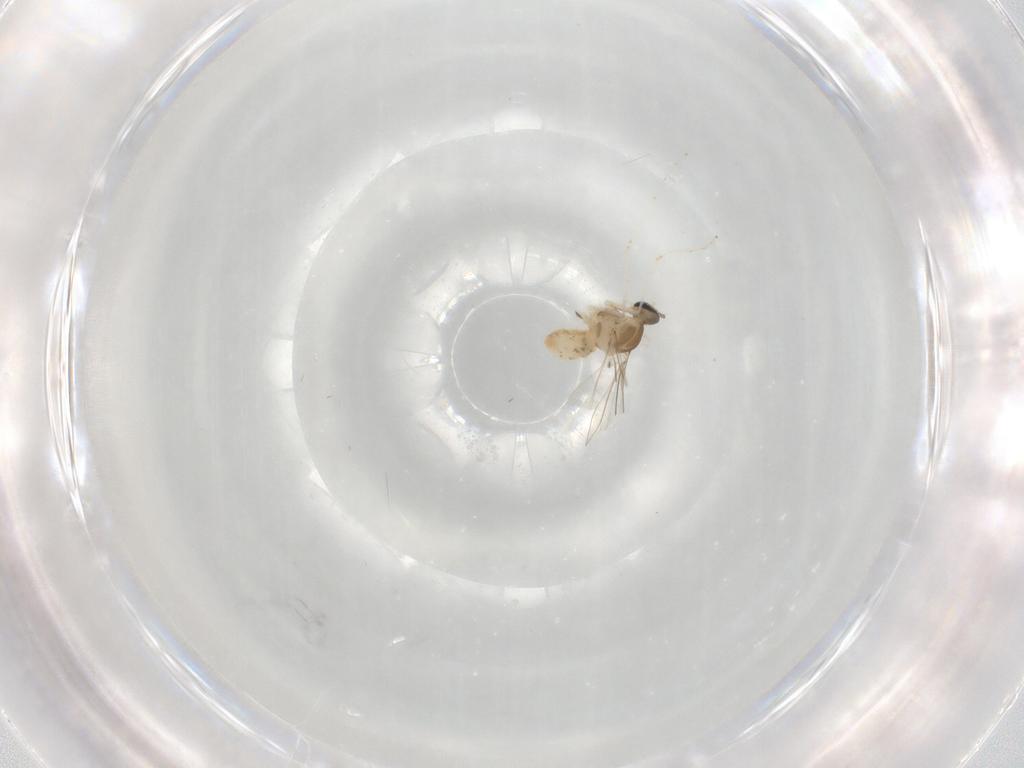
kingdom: Animalia
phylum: Arthropoda
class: Insecta
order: Diptera
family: Cecidomyiidae
